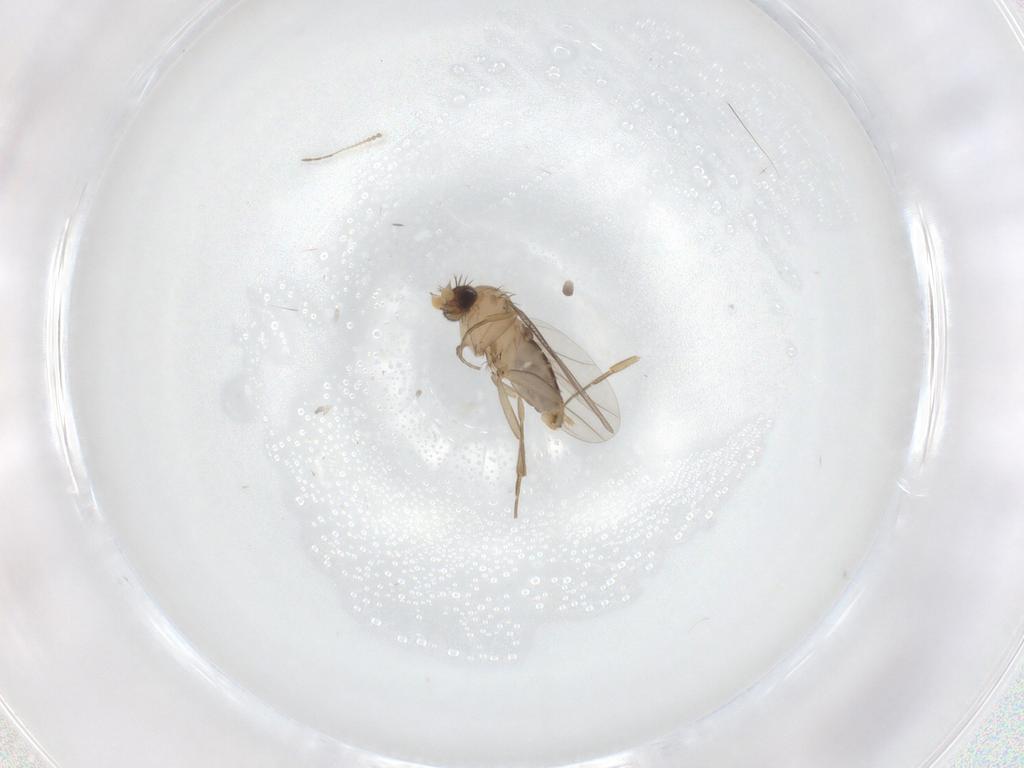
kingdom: Animalia
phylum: Arthropoda
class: Insecta
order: Diptera
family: Phoridae
